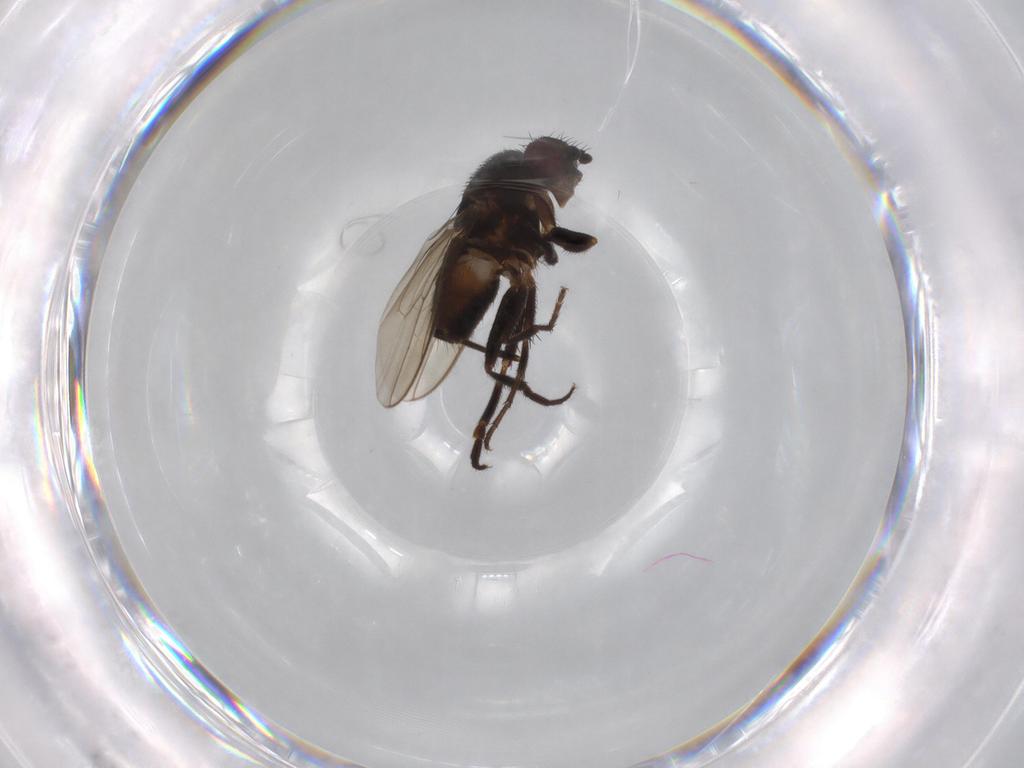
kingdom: Animalia
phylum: Arthropoda
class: Insecta
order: Diptera
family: Sphaeroceridae
